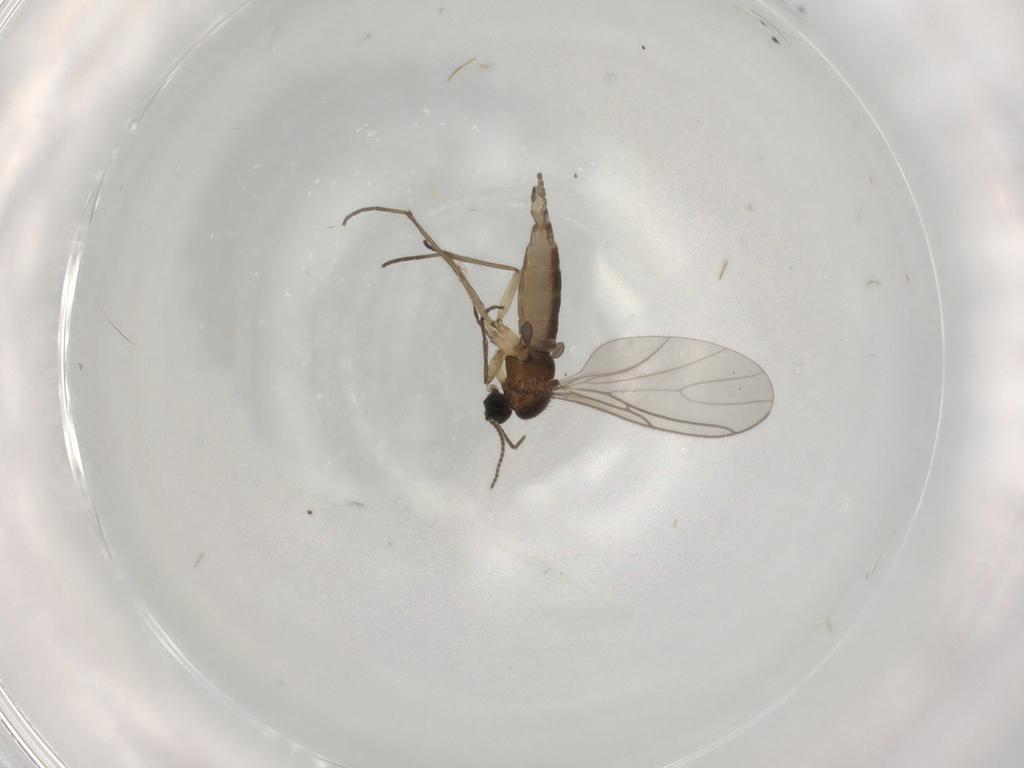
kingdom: Animalia
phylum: Arthropoda
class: Insecta
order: Diptera
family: Sciaridae
